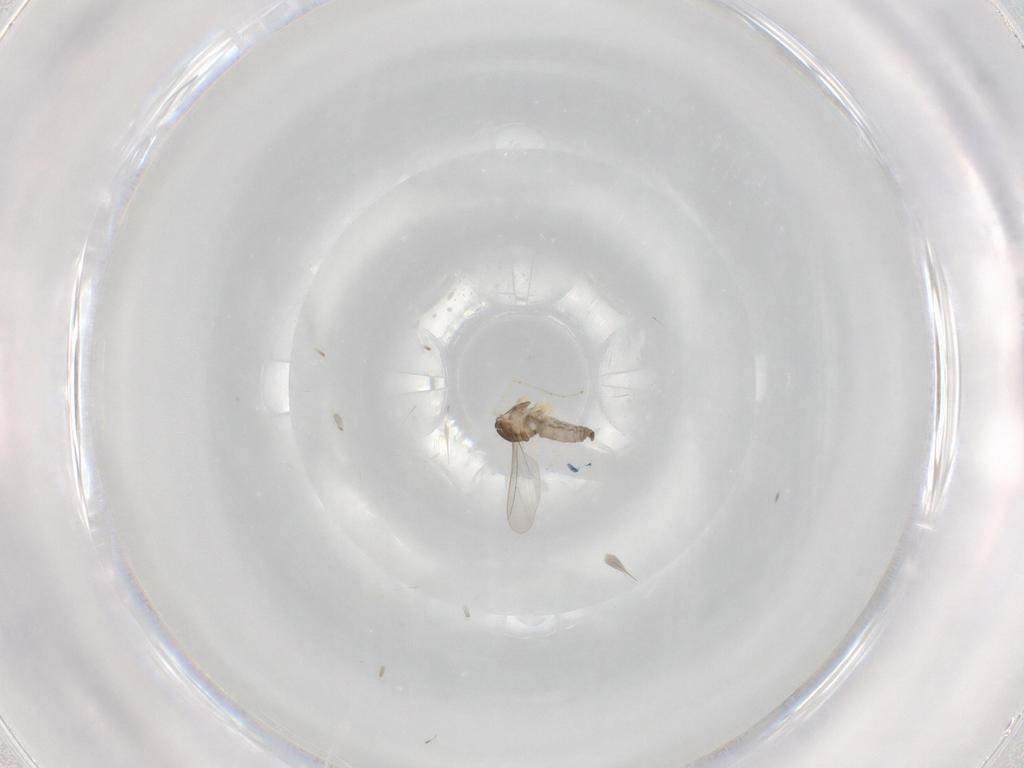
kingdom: Animalia
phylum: Arthropoda
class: Insecta
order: Diptera
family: Cecidomyiidae
